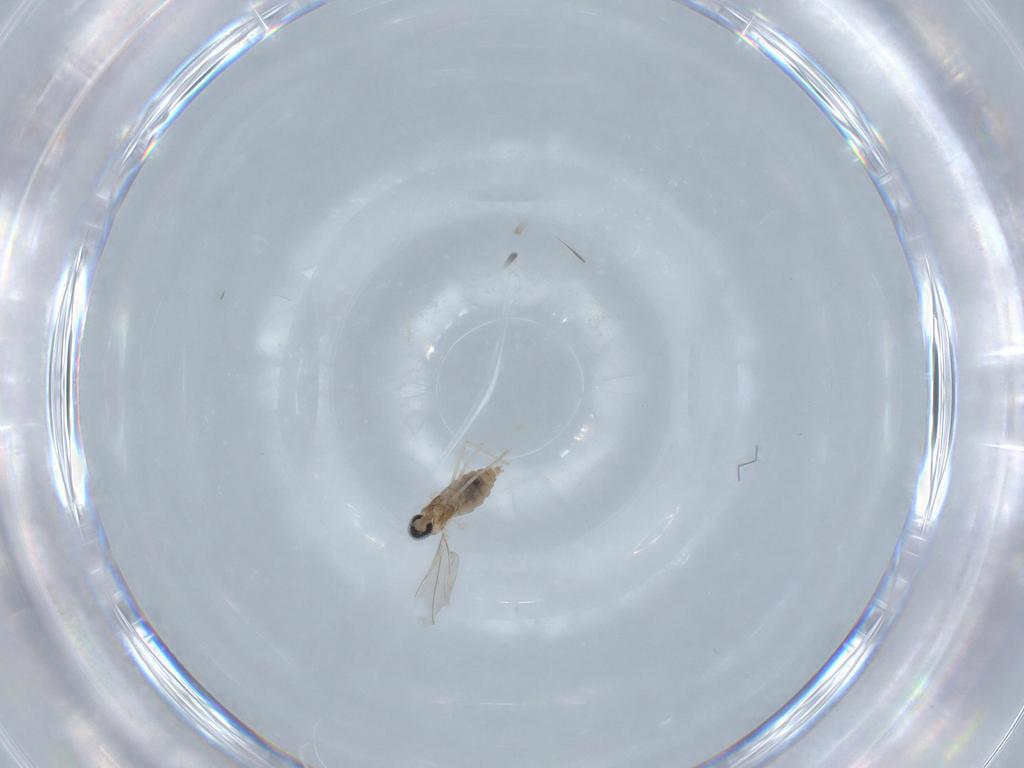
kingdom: Animalia
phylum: Arthropoda
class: Insecta
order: Diptera
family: Cecidomyiidae
